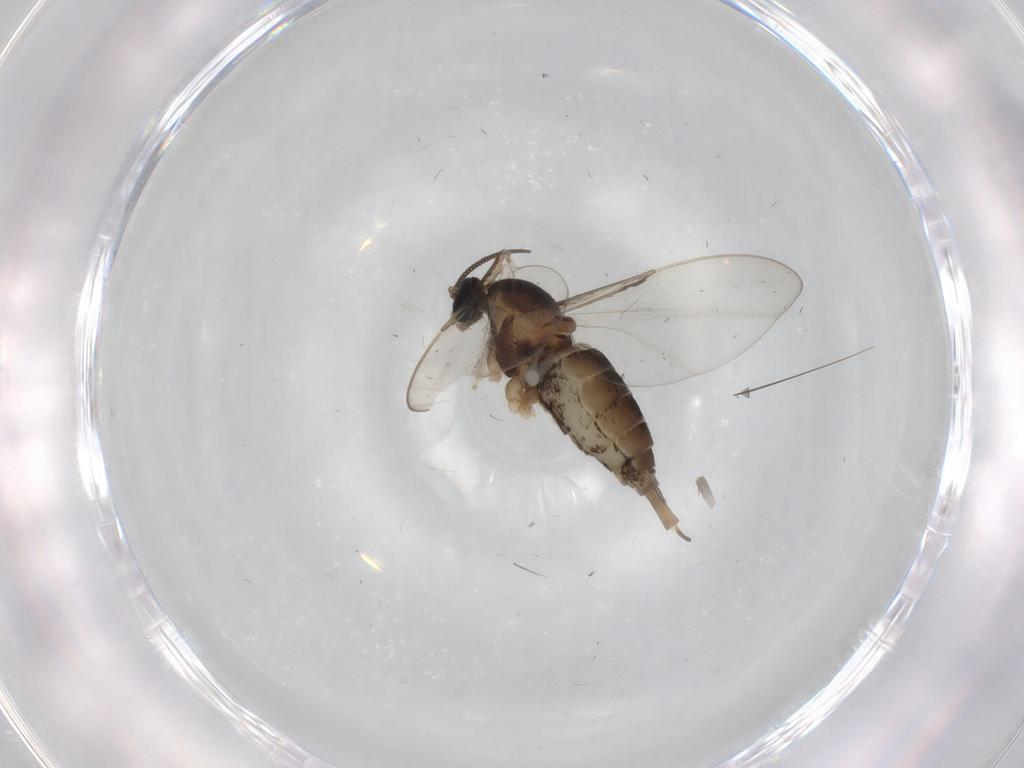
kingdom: Animalia
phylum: Arthropoda
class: Insecta
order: Diptera
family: Cecidomyiidae
